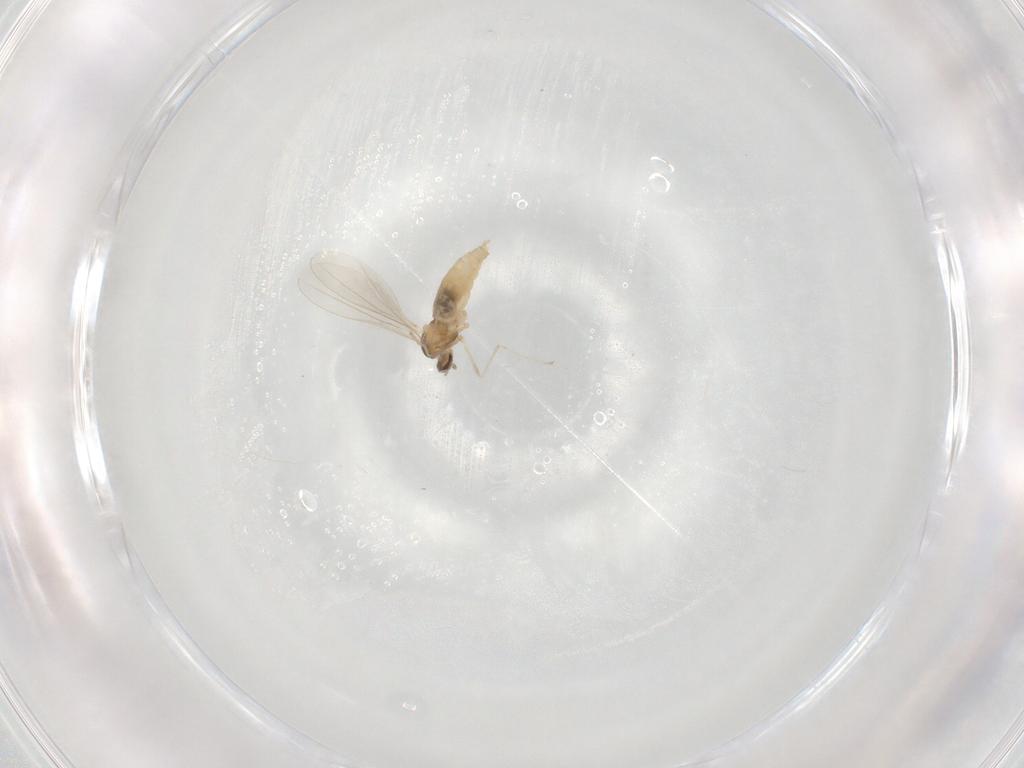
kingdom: Animalia
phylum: Arthropoda
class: Insecta
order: Diptera
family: Cecidomyiidae
